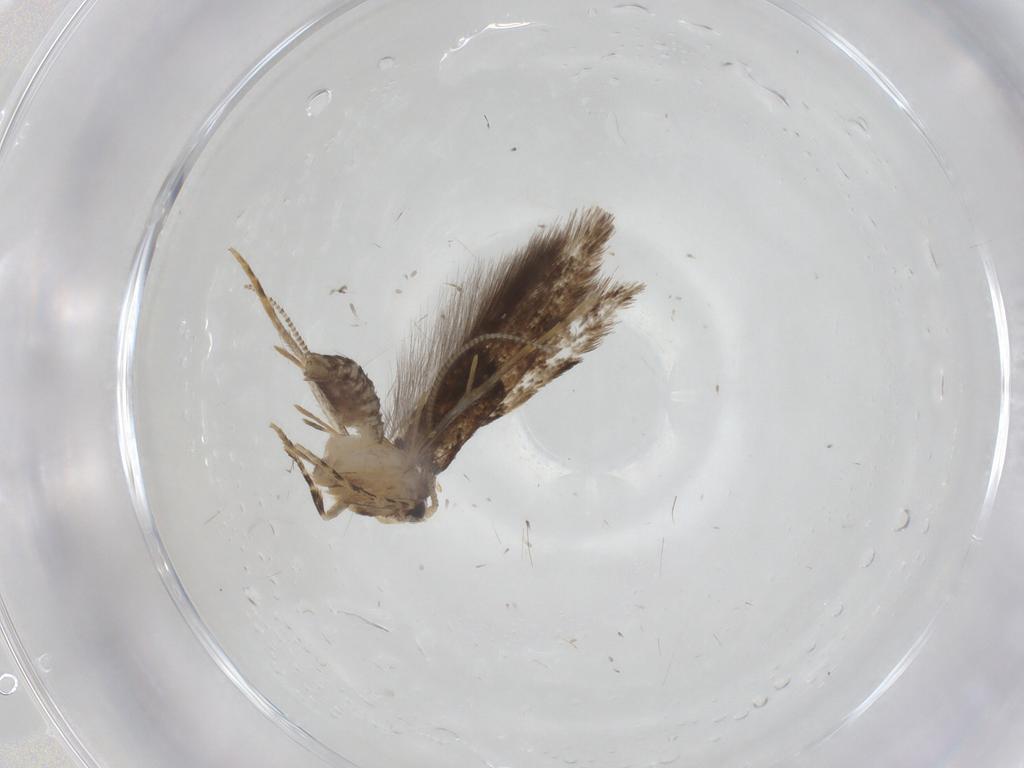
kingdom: Animalia
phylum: Arthropoda
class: Insecta
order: Lepidoptera
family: Tineidae
